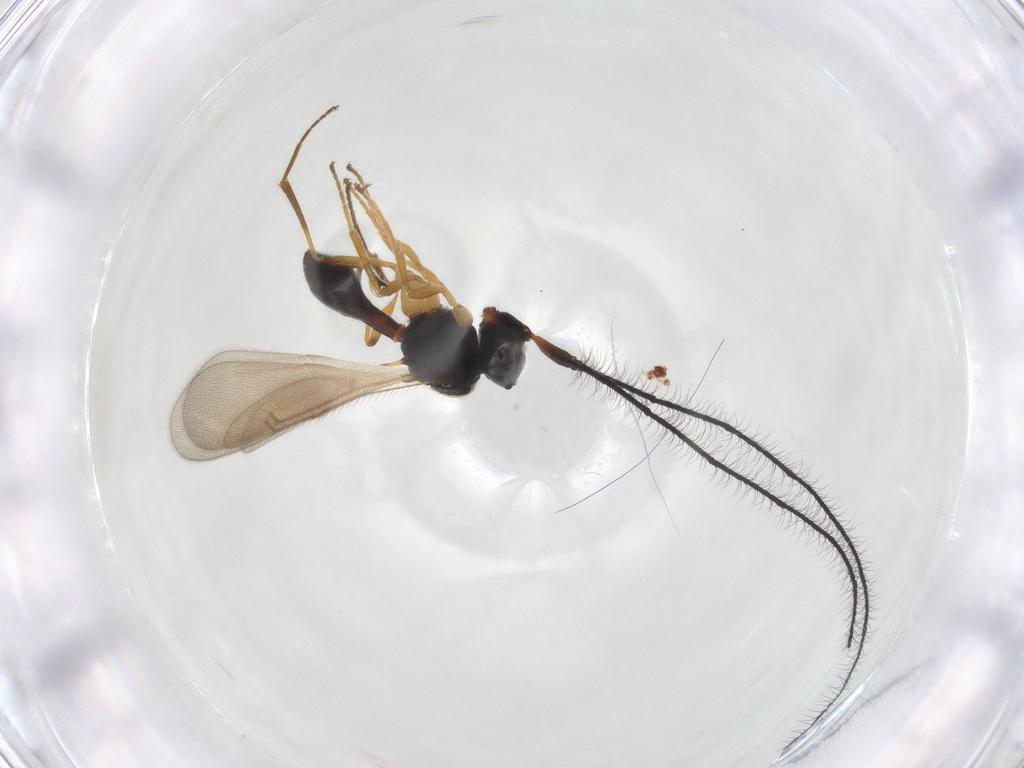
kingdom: Animalia
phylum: Arthropoda
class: Insecta
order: Hymenoptera
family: Scelionidae
